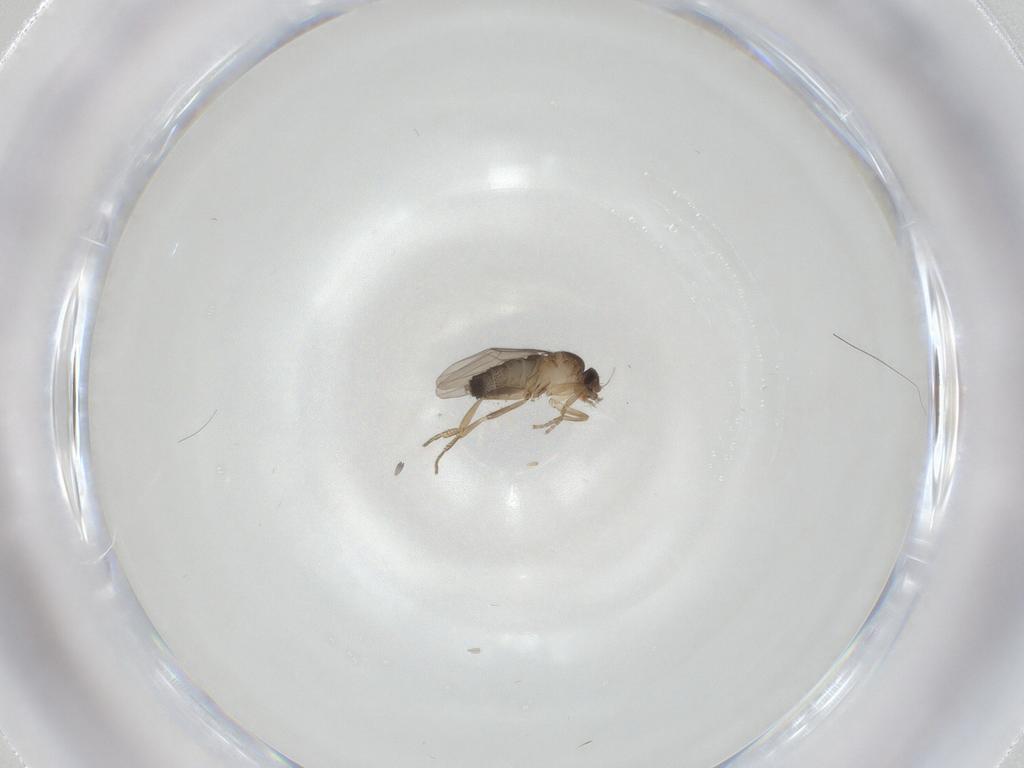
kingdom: Animalia
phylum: Arthropoda
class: Insecta
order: Diptera
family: Phoridae
